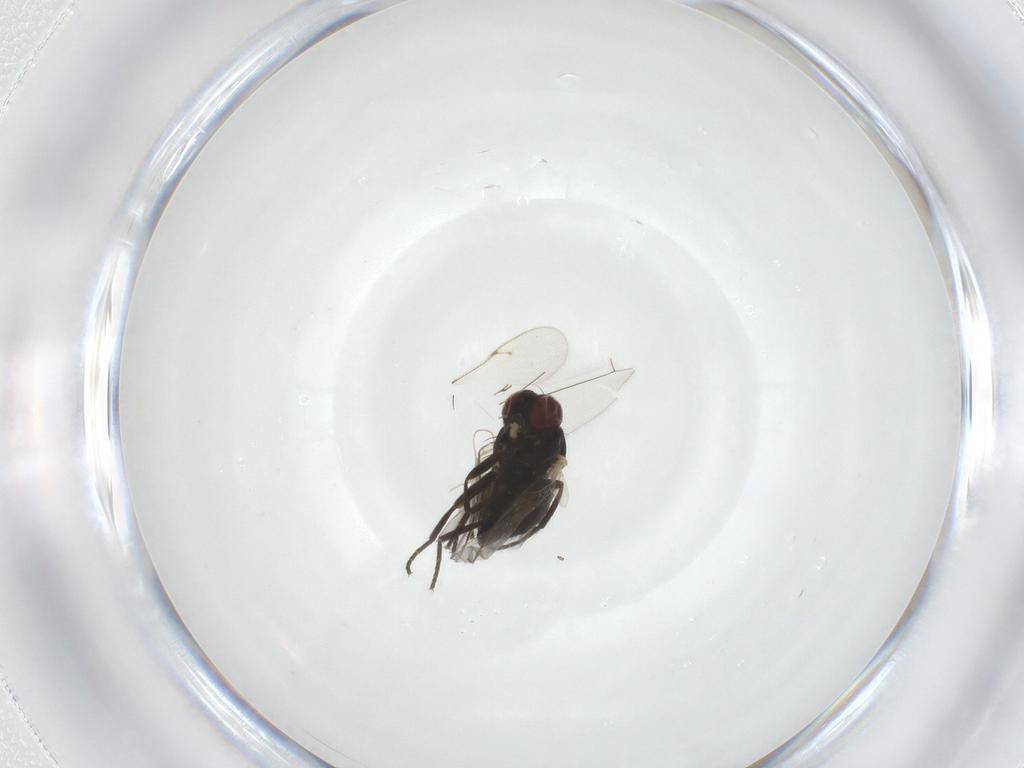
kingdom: Animalia
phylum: Arthropoda
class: Insecta
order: Diptera
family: Sarcophagidae
